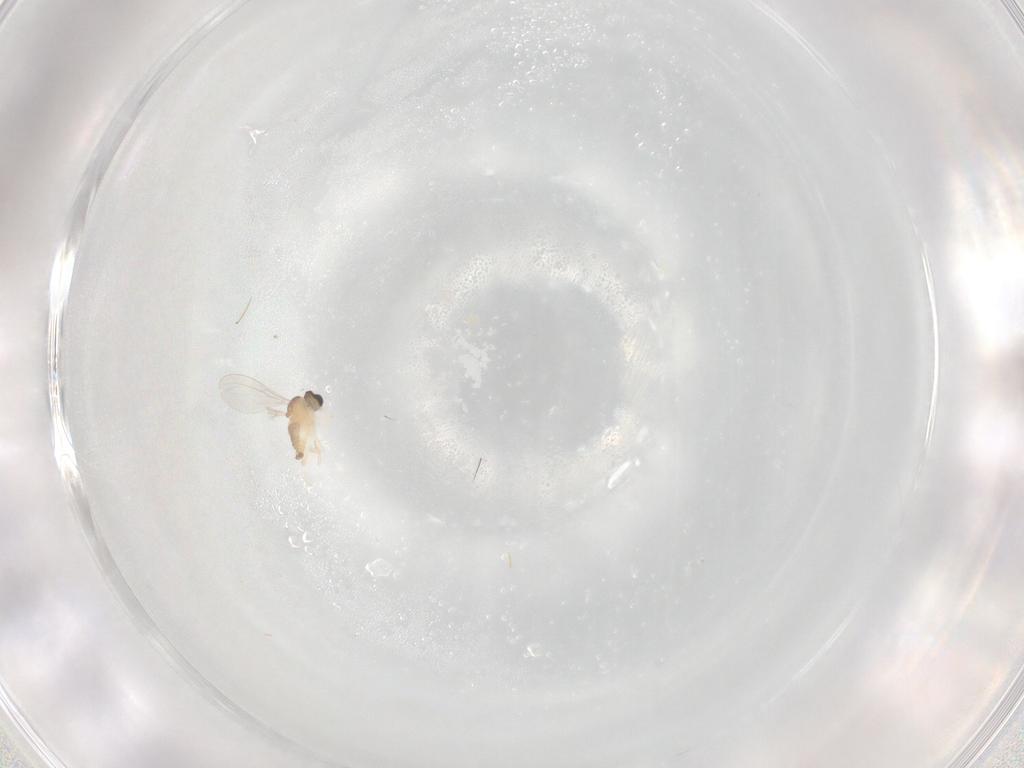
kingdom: Animalia
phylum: Arthropoda
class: Insecta
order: Diptera
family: Cecidomyiidae
